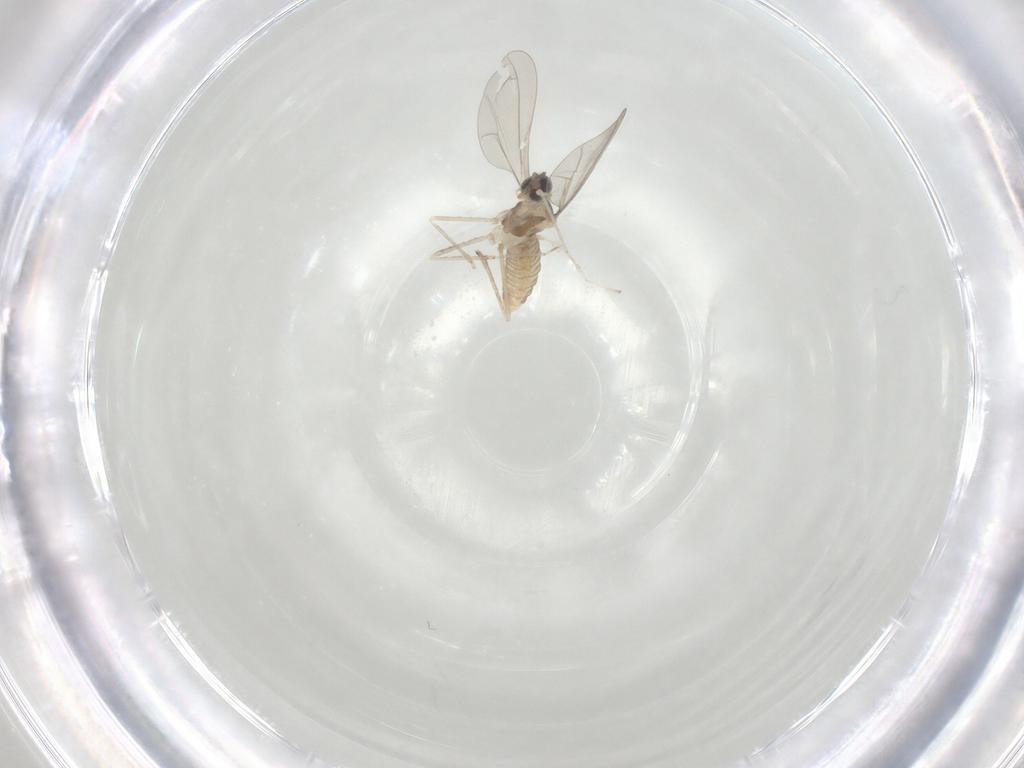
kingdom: Animalia
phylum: Arthropoda
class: Insecta
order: Diptera
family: Cecidomyiidae
